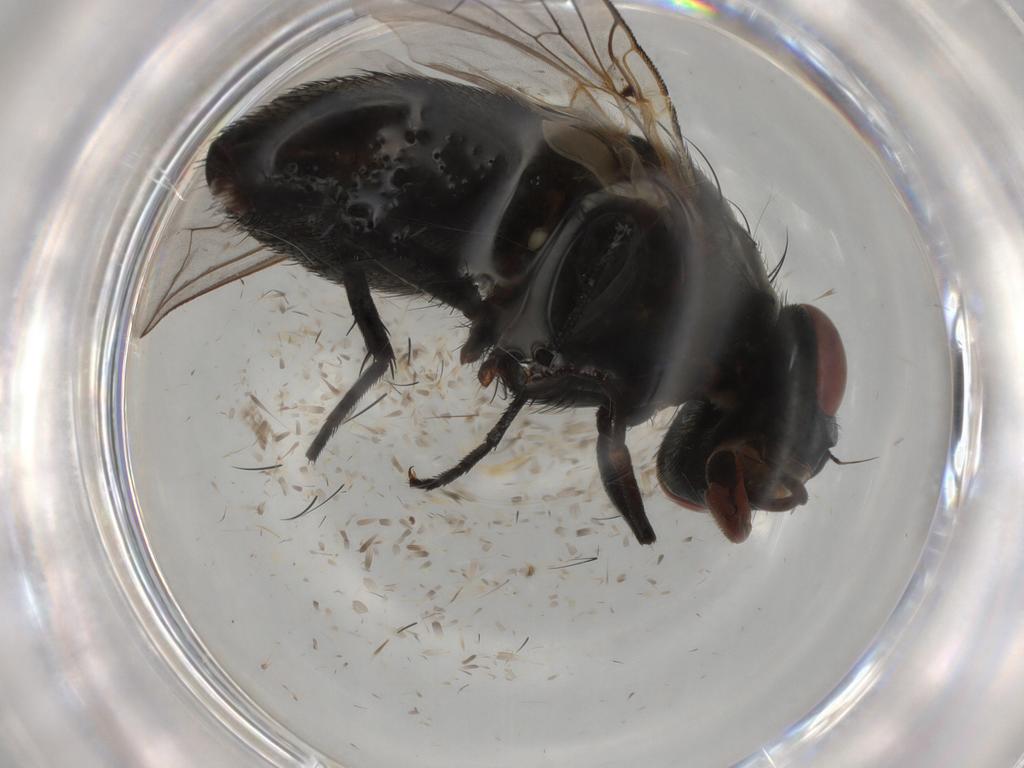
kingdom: Animalia
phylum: Arthropoda
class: Insecta
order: Diptera
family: Sarcophagidae
